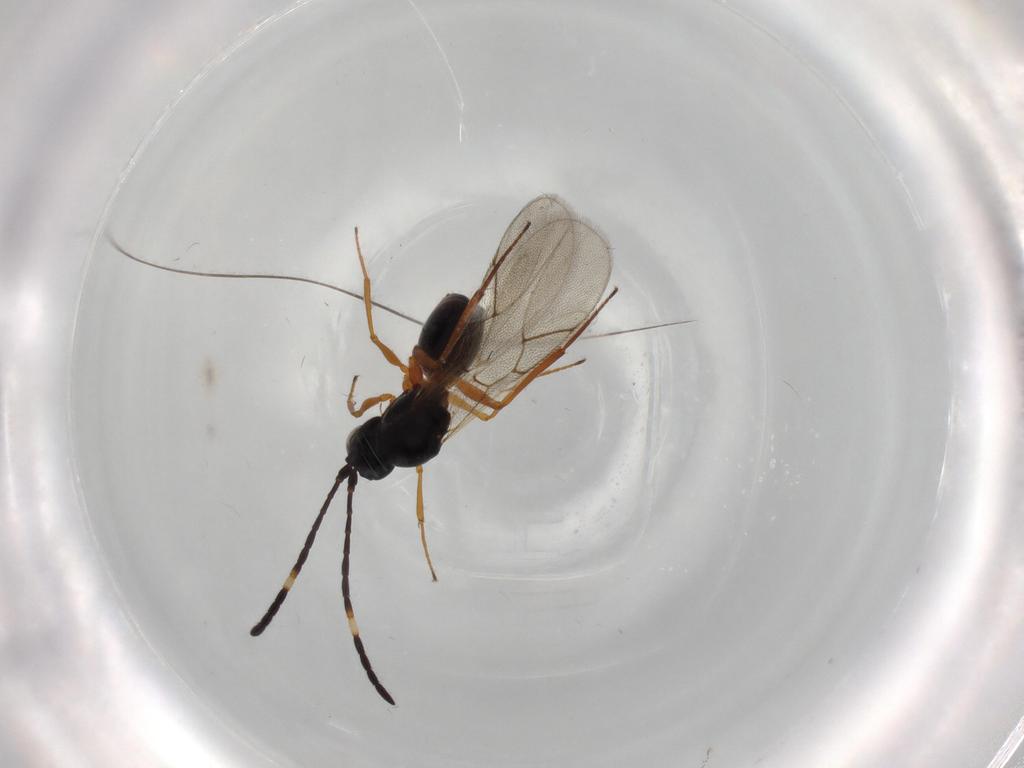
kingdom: Animalia
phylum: Arthropoda
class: Insecta
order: Hymenoptera
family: Figitidae
